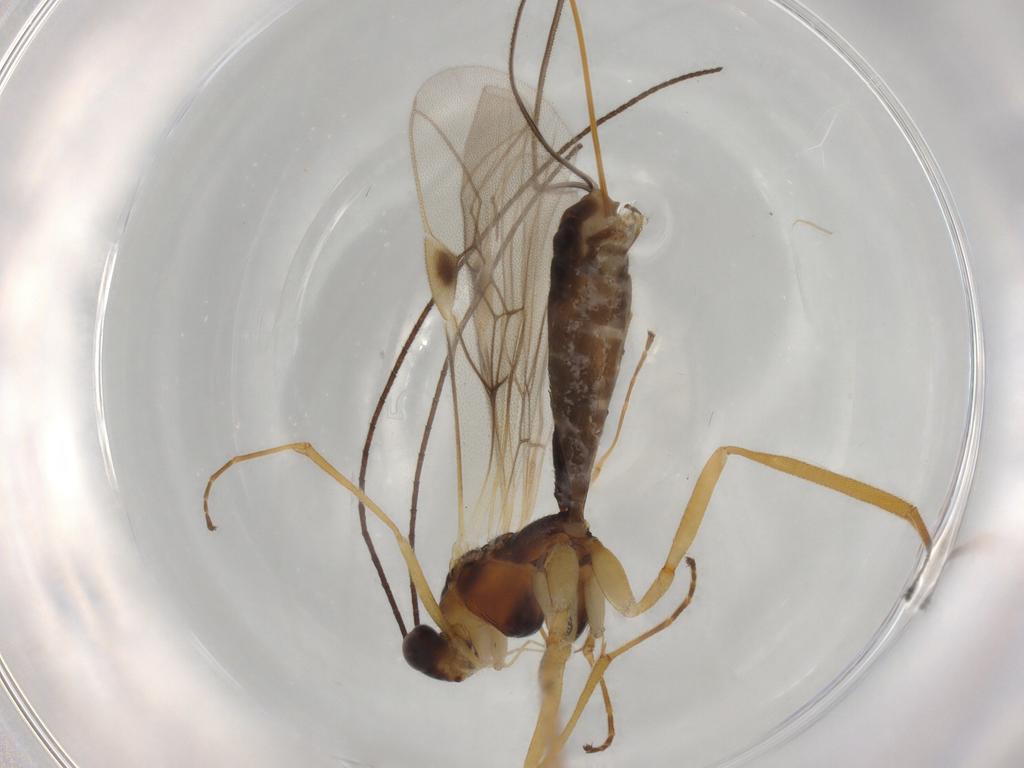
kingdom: Animalia
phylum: Arthropoda
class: Insecta
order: Hymenoptera
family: Braconidae
